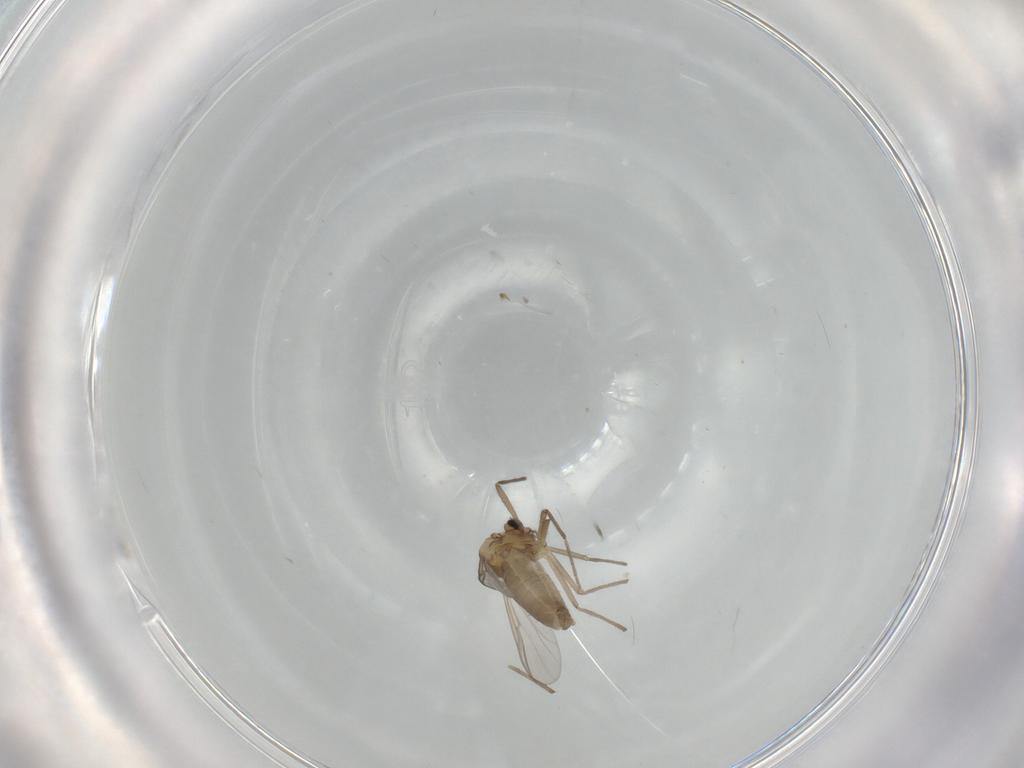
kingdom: Animalia
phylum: Arthropoda
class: Insecta
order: Diptera
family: Chironomidae
